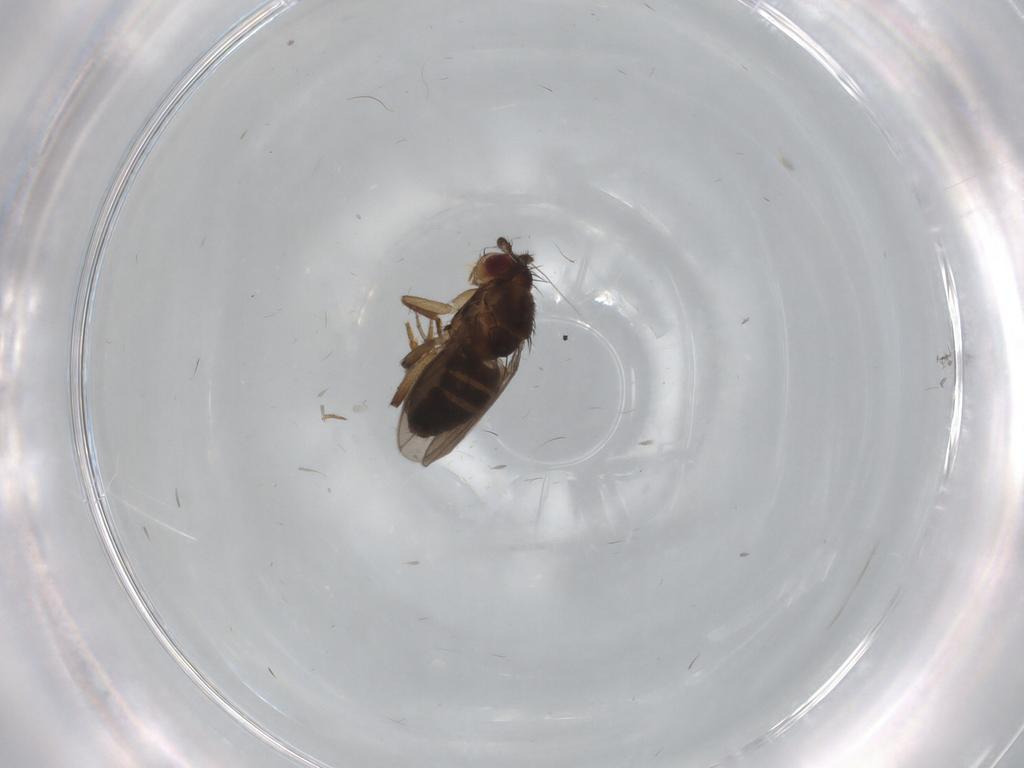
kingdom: Animalia
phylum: Arthropoda
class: Insecta
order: Diptera
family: Sphaeroceridae
